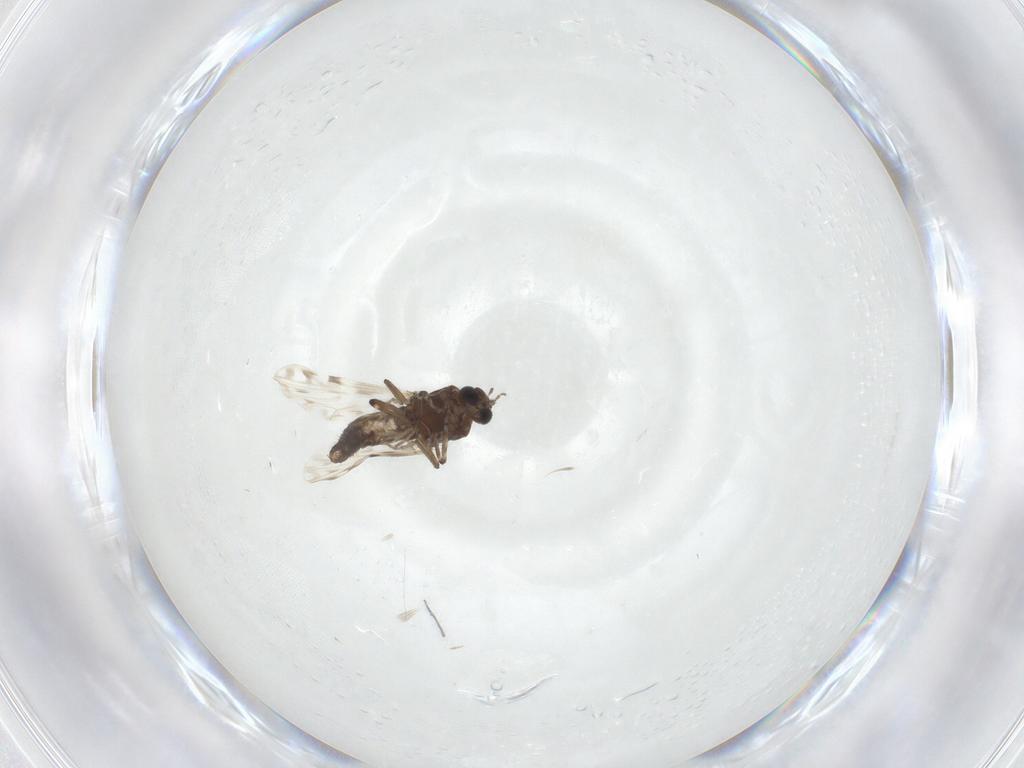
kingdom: Animalia
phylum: Arthropoda
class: Insecta
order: Diptera
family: Ceratopogonidae
